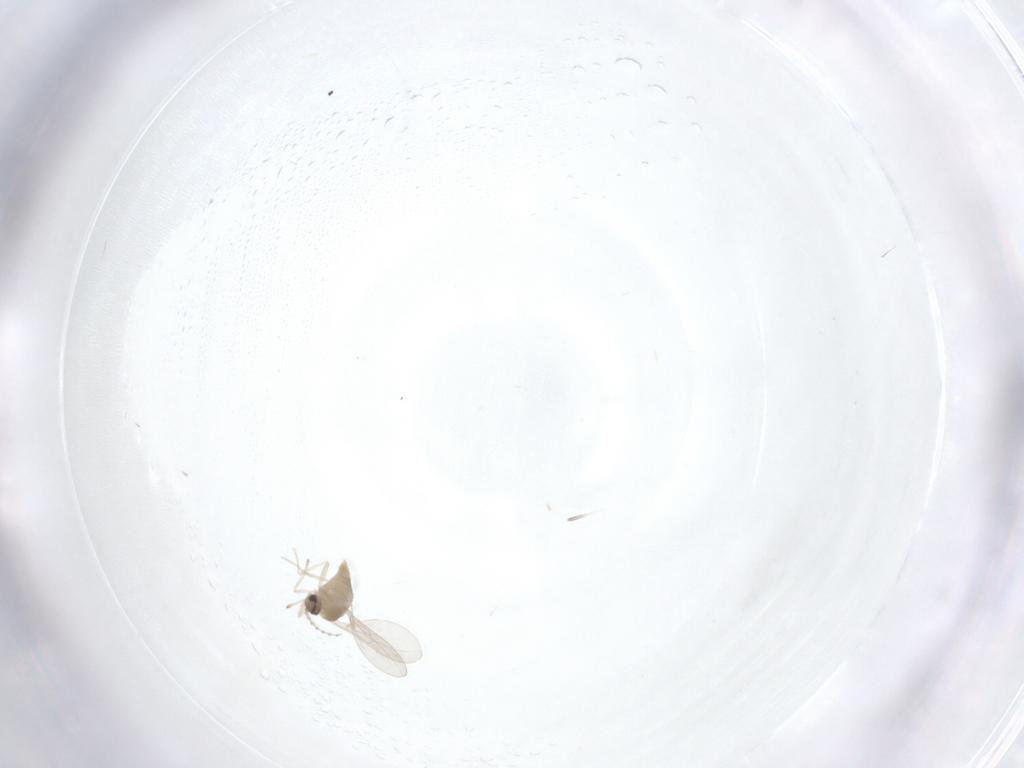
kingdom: Animalia
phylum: Arthropoda
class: Insecta
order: Diptera
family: Cecidomyiidae
